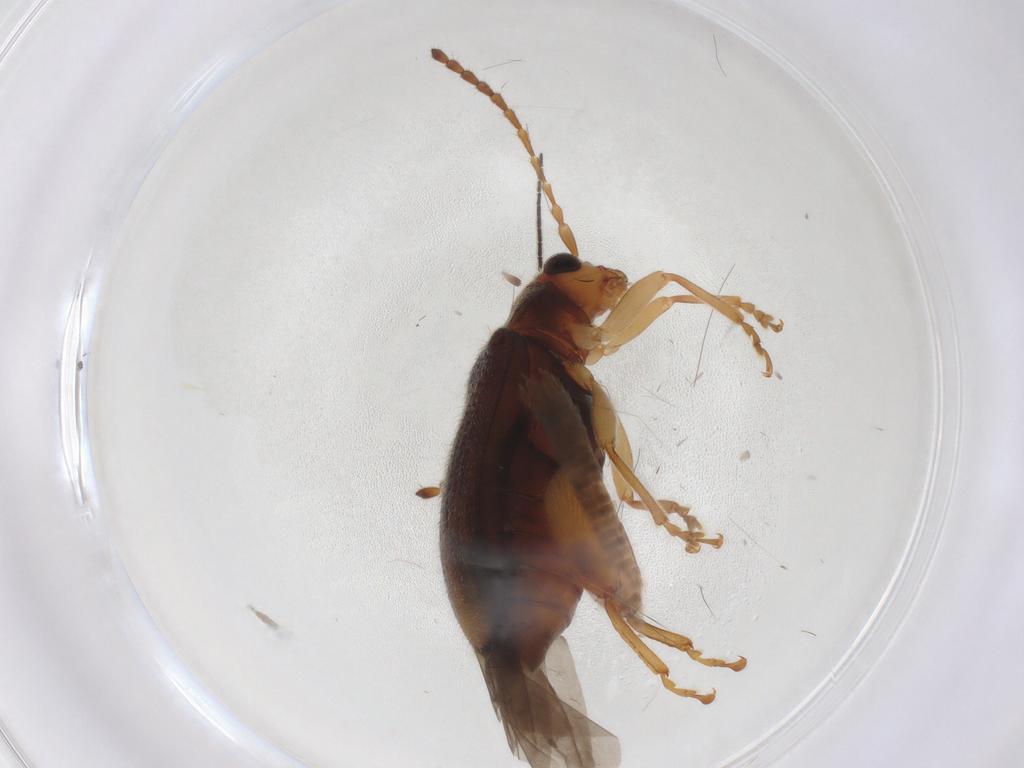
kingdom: Animalia
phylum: Arthropoda
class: Insecta
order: Coleoptera
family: Chrysomelidae
